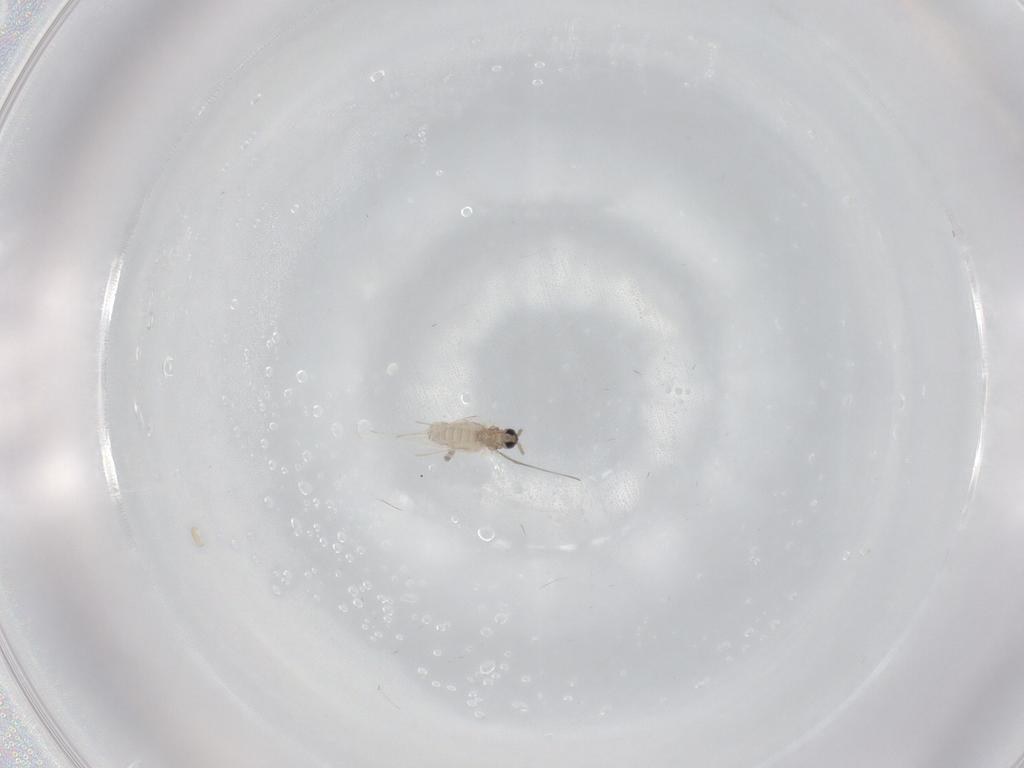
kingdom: Animalia
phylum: Arthropoda
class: Insecta
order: Diptera
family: Cecidomyiidae
